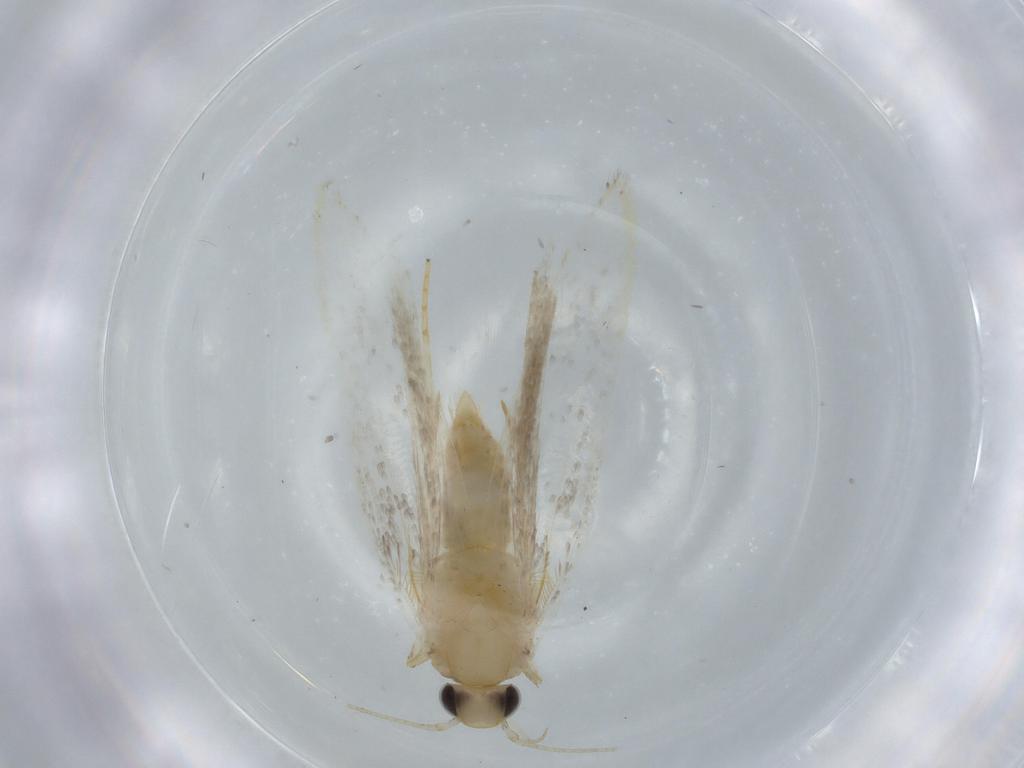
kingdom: Animalia
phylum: Arthropoda
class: Insecta
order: Lepidoptera
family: Autostichidae
